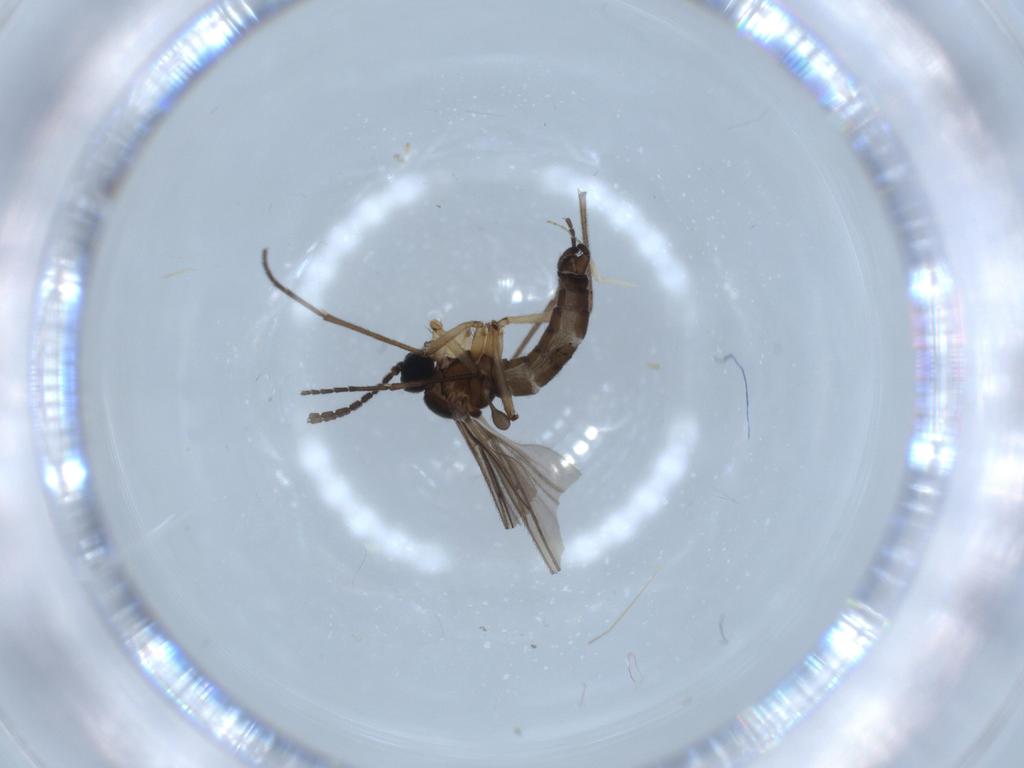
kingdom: Animalia
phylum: Arthropoda
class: Insecta
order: Diptera
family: Sciaridae
